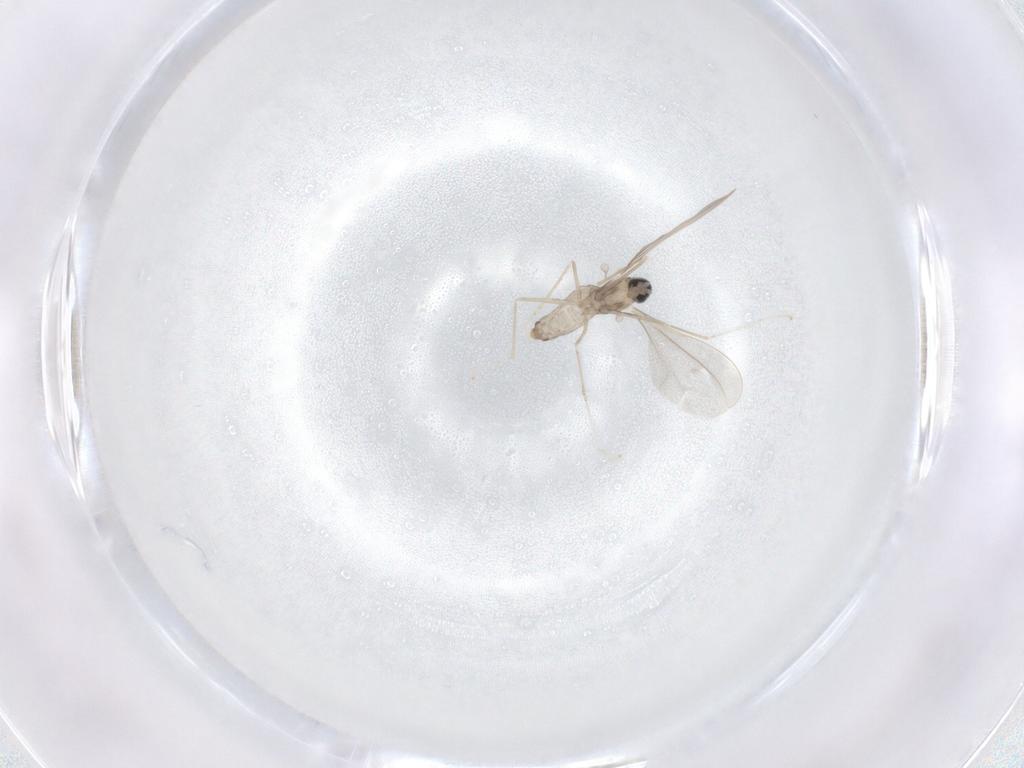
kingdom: Animalia
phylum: Arthropoda
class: Insecta
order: Diptera
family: Cecidomyiidae
